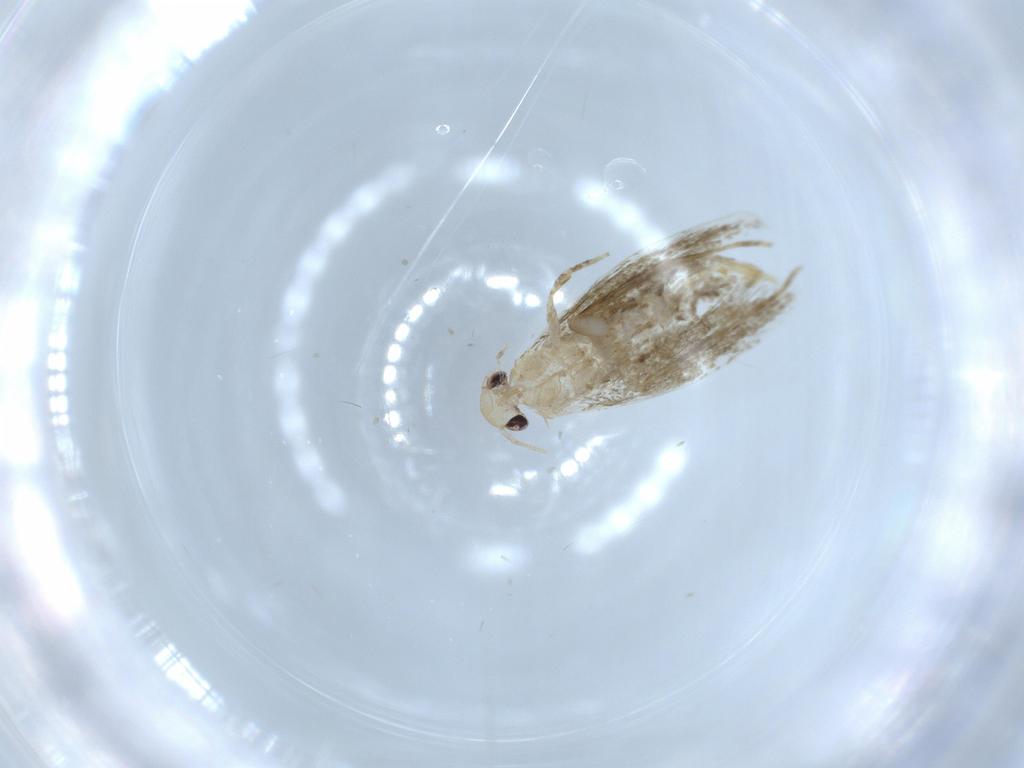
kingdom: Animalia
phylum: Arthropoda
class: Insecta
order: Lepidoptera
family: Tineidae
